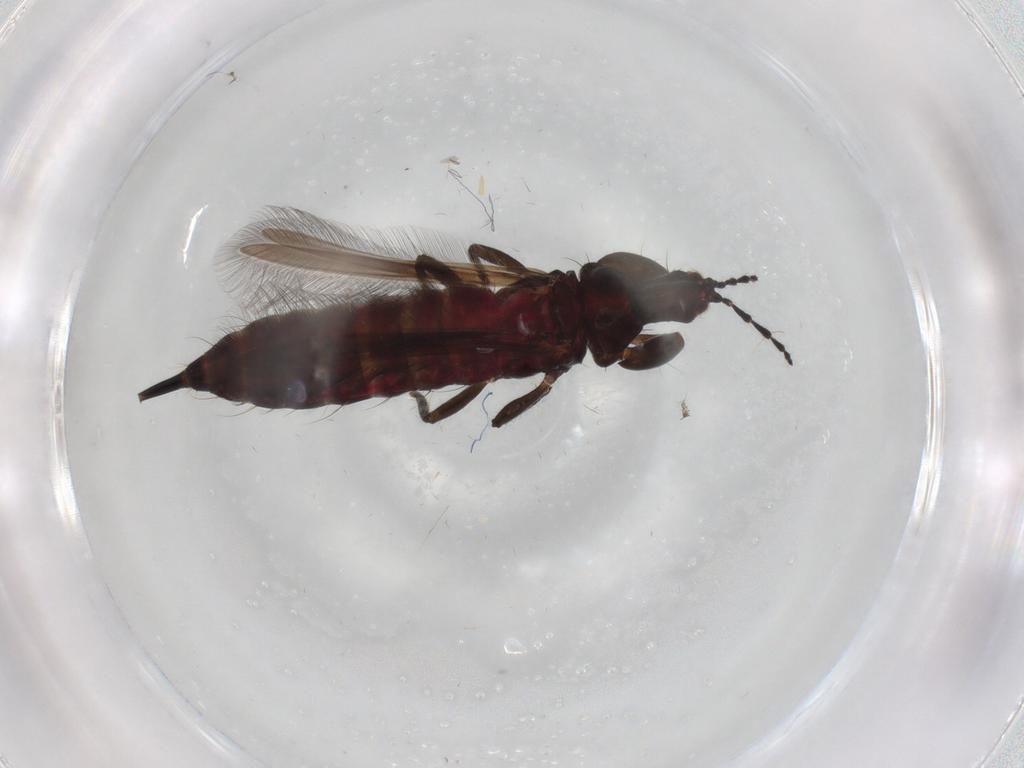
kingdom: Animalia
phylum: Arthropoda
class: Insecta
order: Thysanoptera
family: Phlaeothripidae
